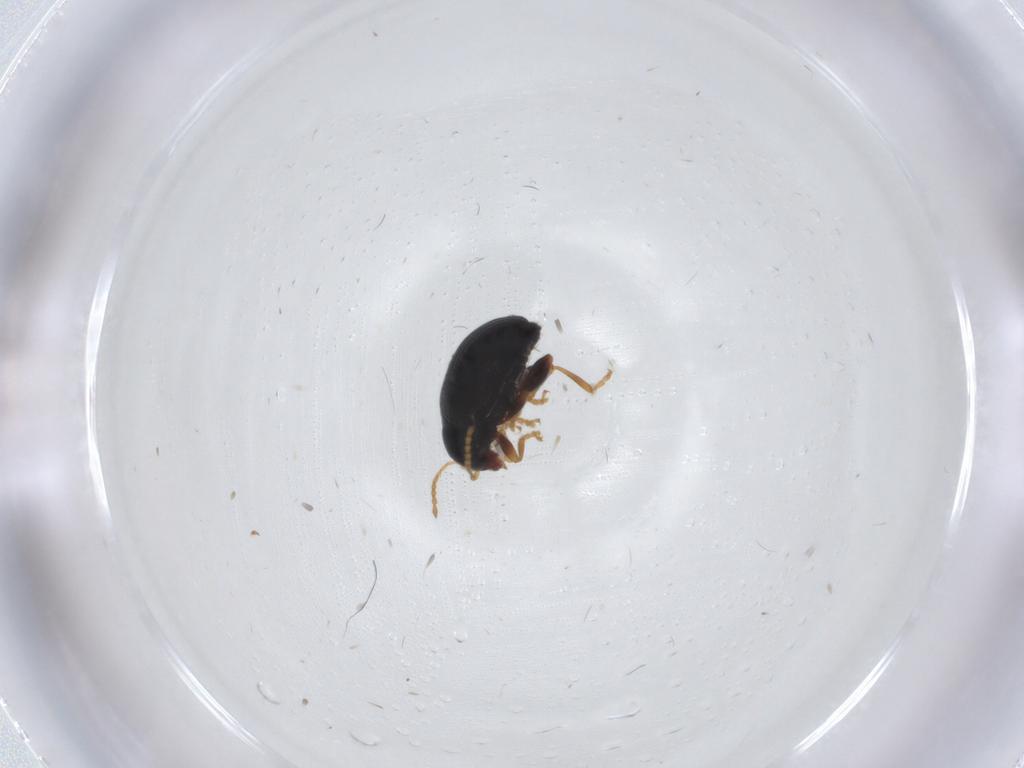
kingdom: Animalia
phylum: Arthropoda
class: Insecta
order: Coleoptera
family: Chrysomelidae
